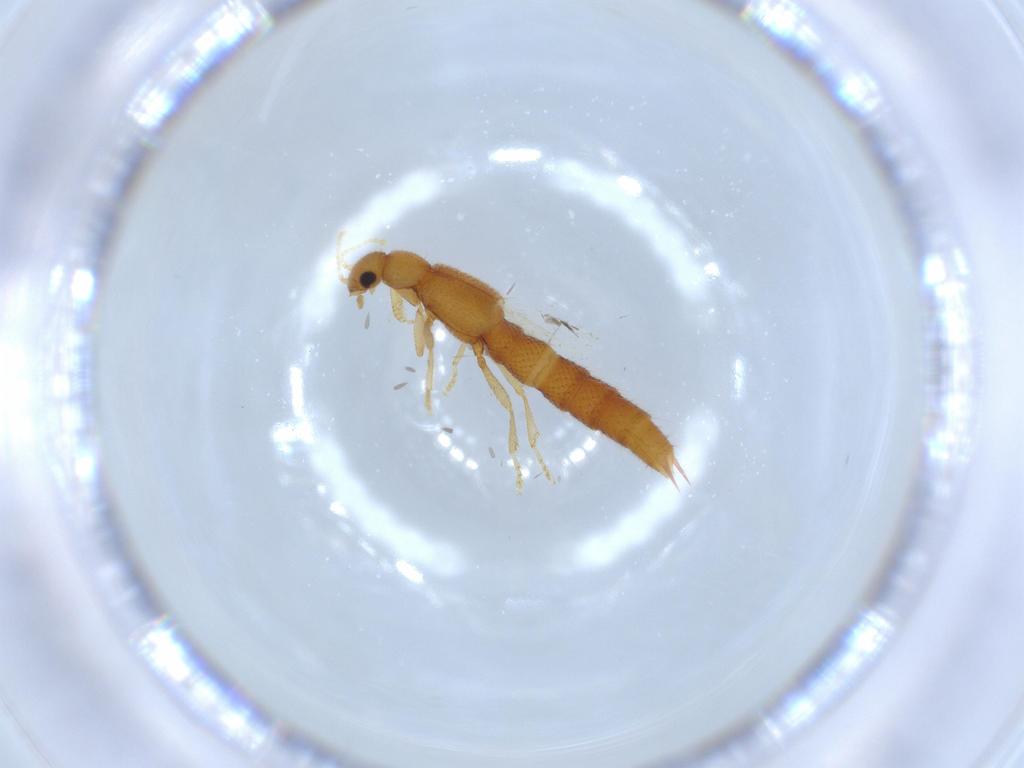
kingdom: Animalia
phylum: Arthropoda
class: Insecta
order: Coleoptera
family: Staphylinidae
